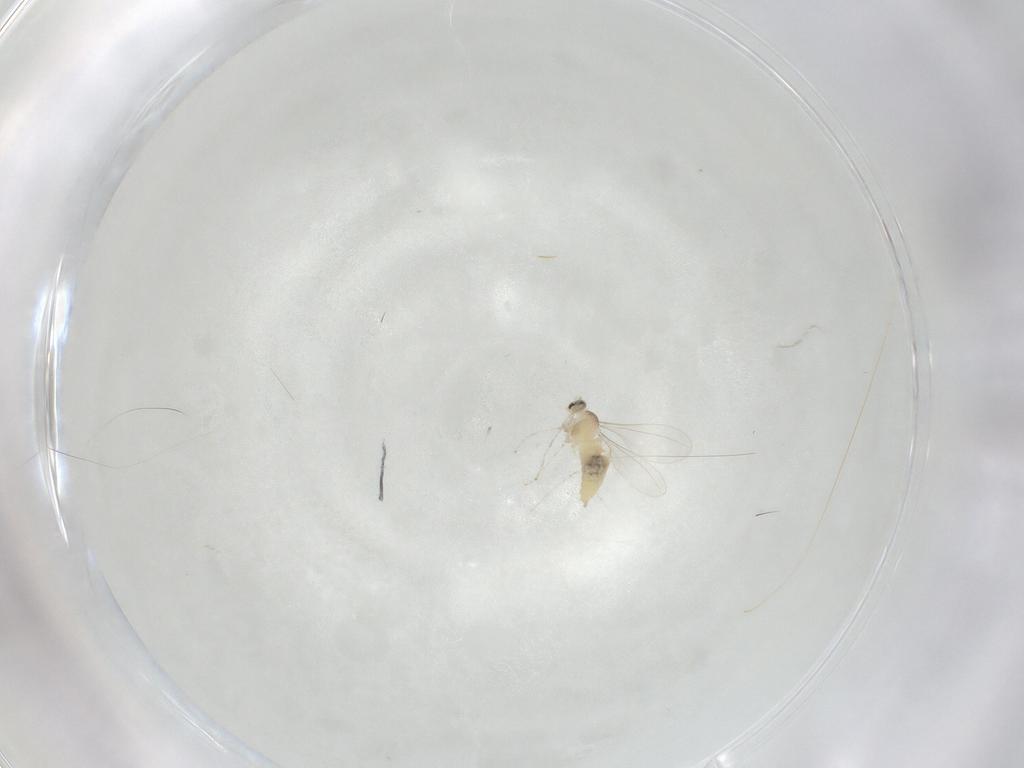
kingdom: Animalia
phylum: Arthropoda
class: Insecta
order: Diptera
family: Cecidomyiidae
